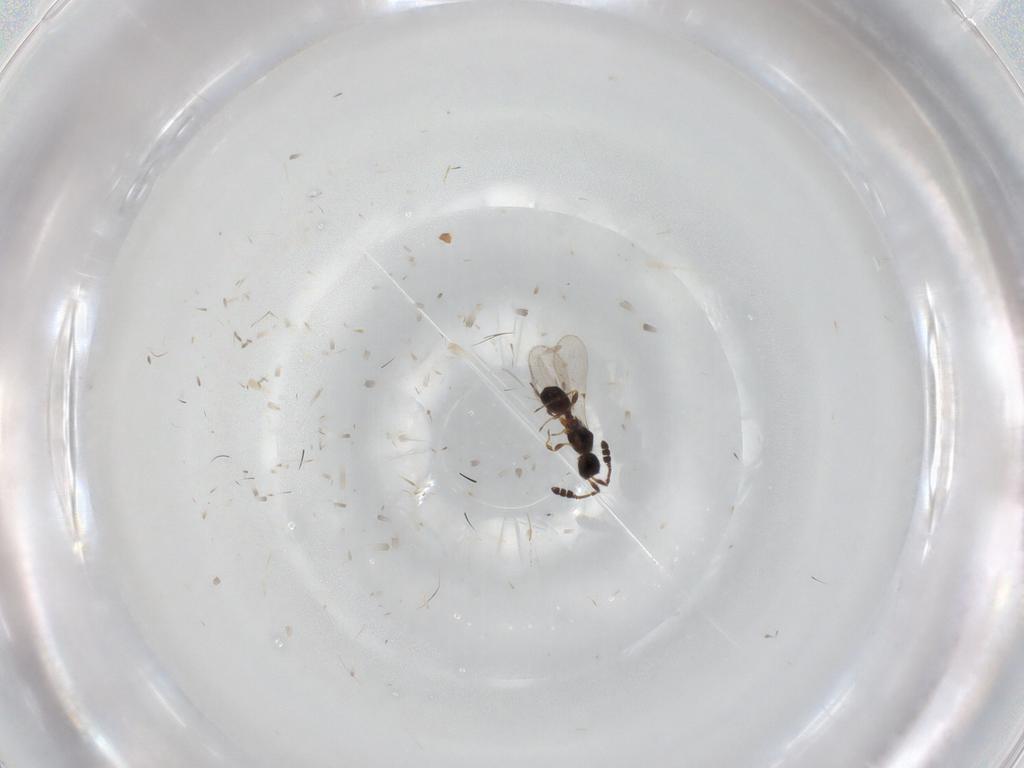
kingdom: Animalia
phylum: Arthropoda
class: Insecta
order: Hymenoptera
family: Diapriidae
